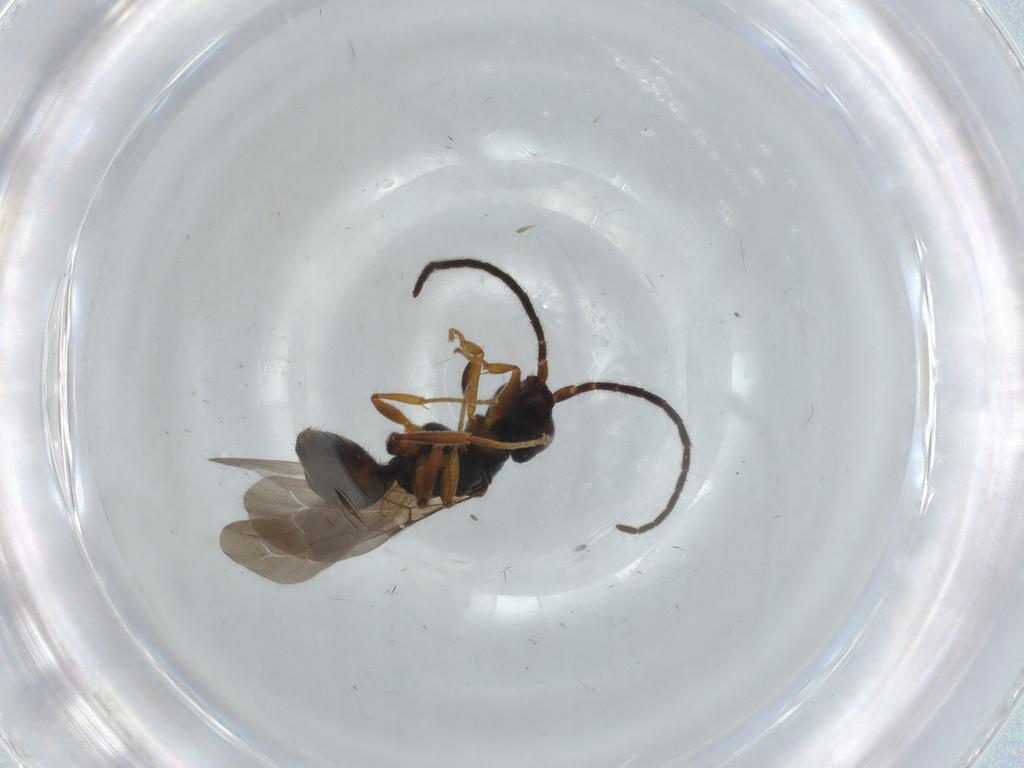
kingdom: Animalia
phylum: Arthropoda
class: Insecta
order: Hymenoptera
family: Bethylidae
